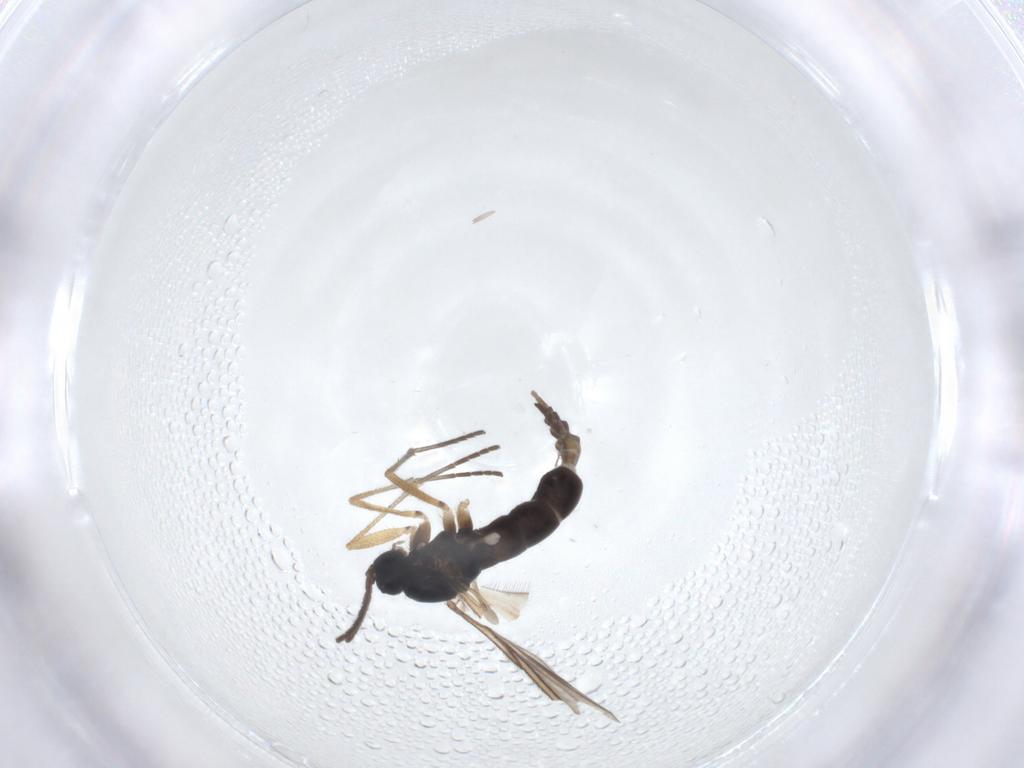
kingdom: Animalia
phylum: Arthropoda
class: Insecta
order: Diptera
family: Sciaridae
